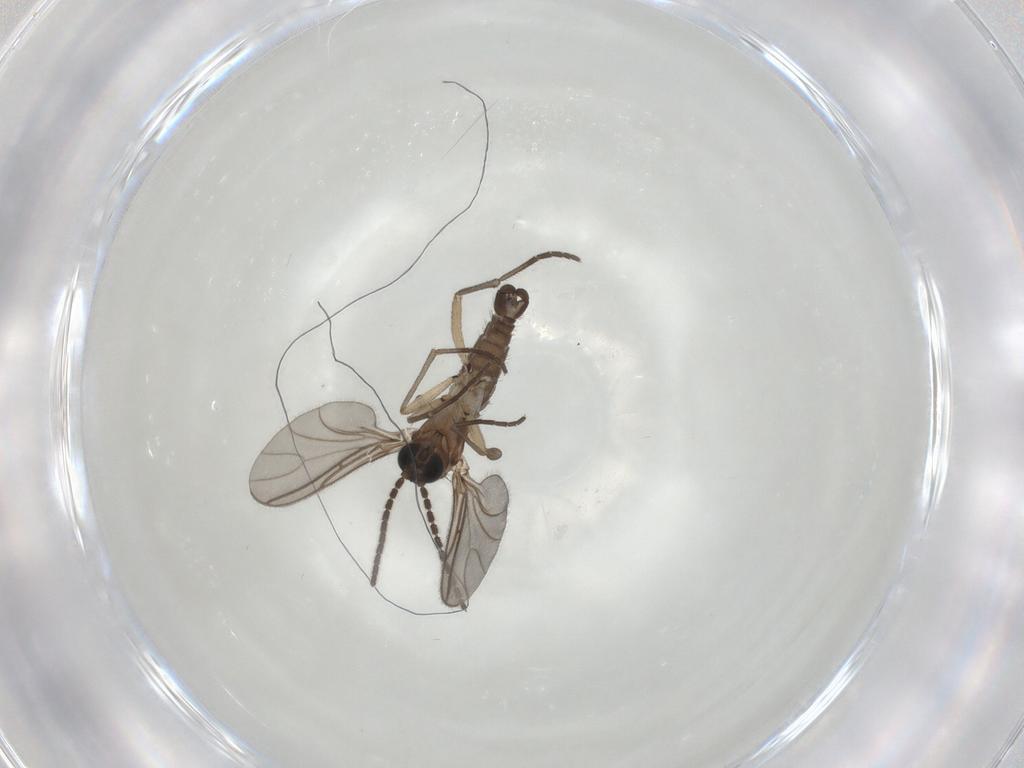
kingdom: Animalia
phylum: Arthropoda
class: Insecta
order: Diptera
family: Sciaridae
